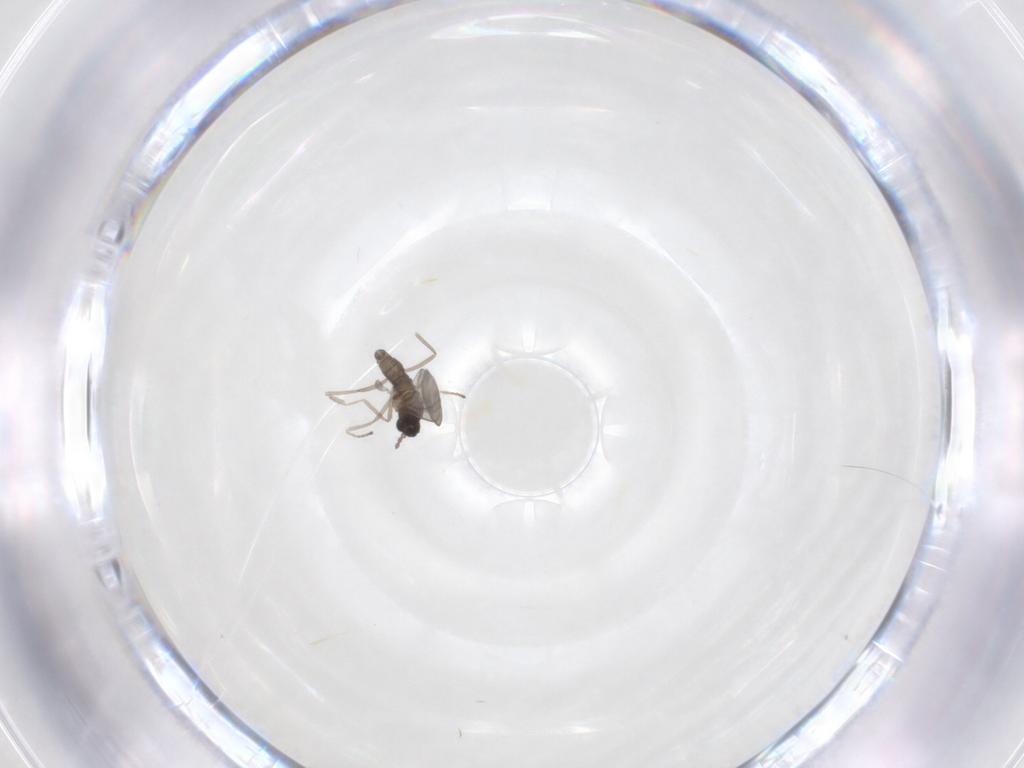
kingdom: Animalia
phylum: Arthropoda
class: Insecta
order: Diptera
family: Cecidomyiidae
